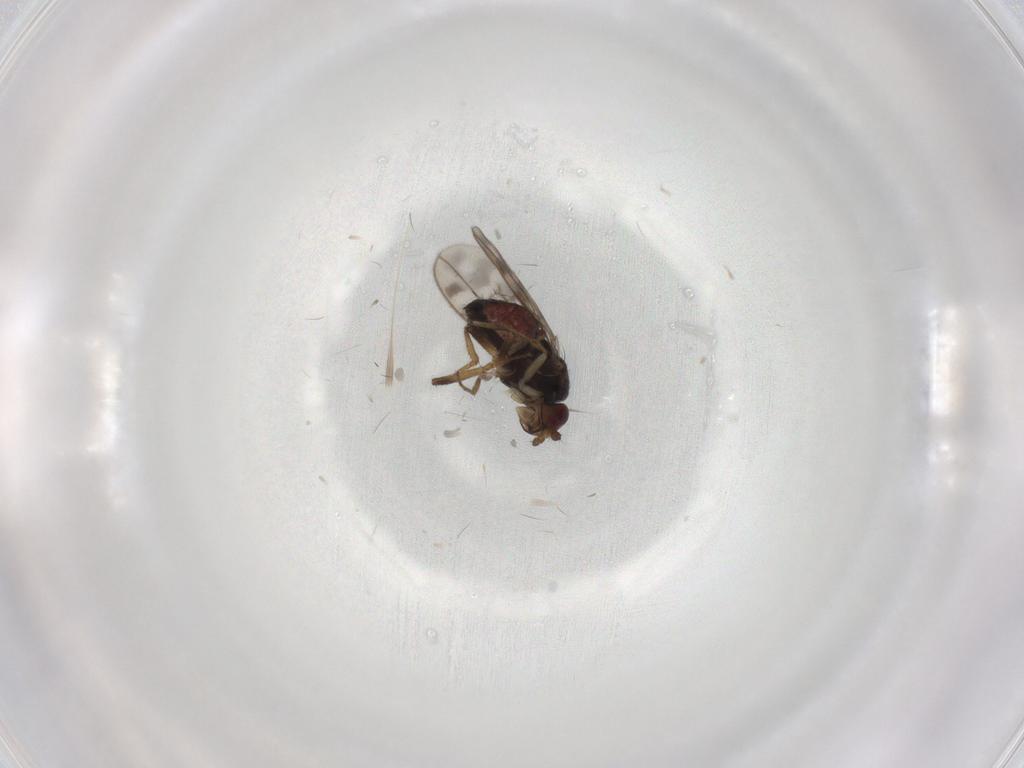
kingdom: Animalia
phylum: Arthropoda
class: Insecta
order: Diptera
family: Sphaeroceridae
